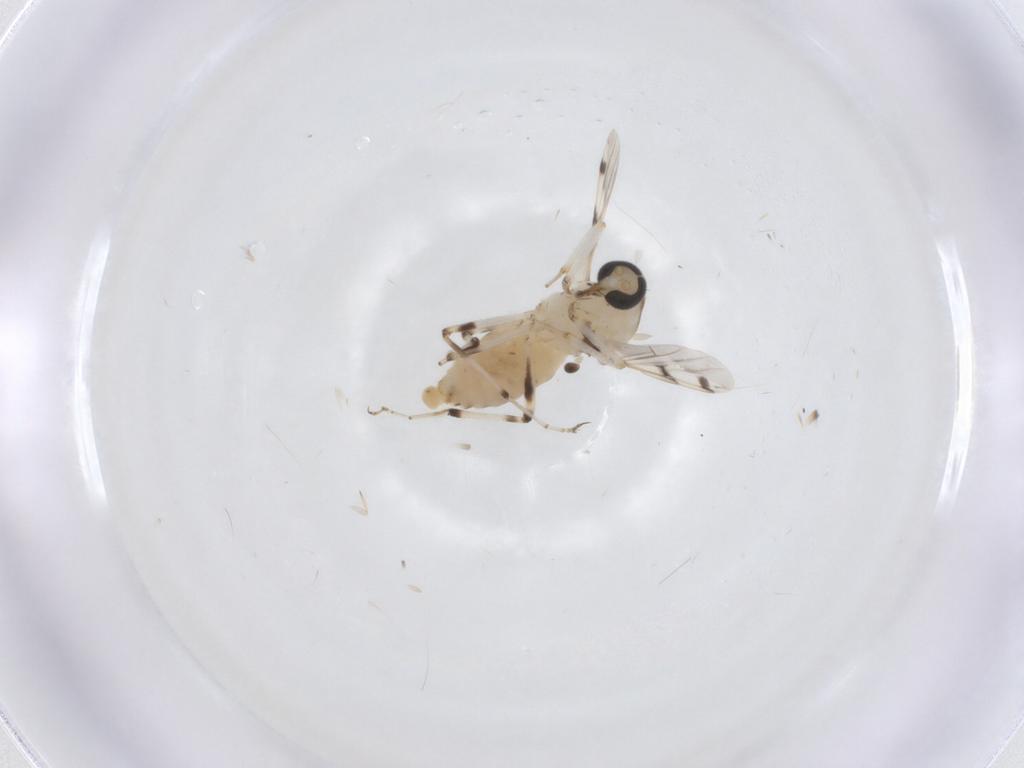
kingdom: Animalia
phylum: Arthropoda
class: Insecta
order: Diptera
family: Ceratopogonidae
